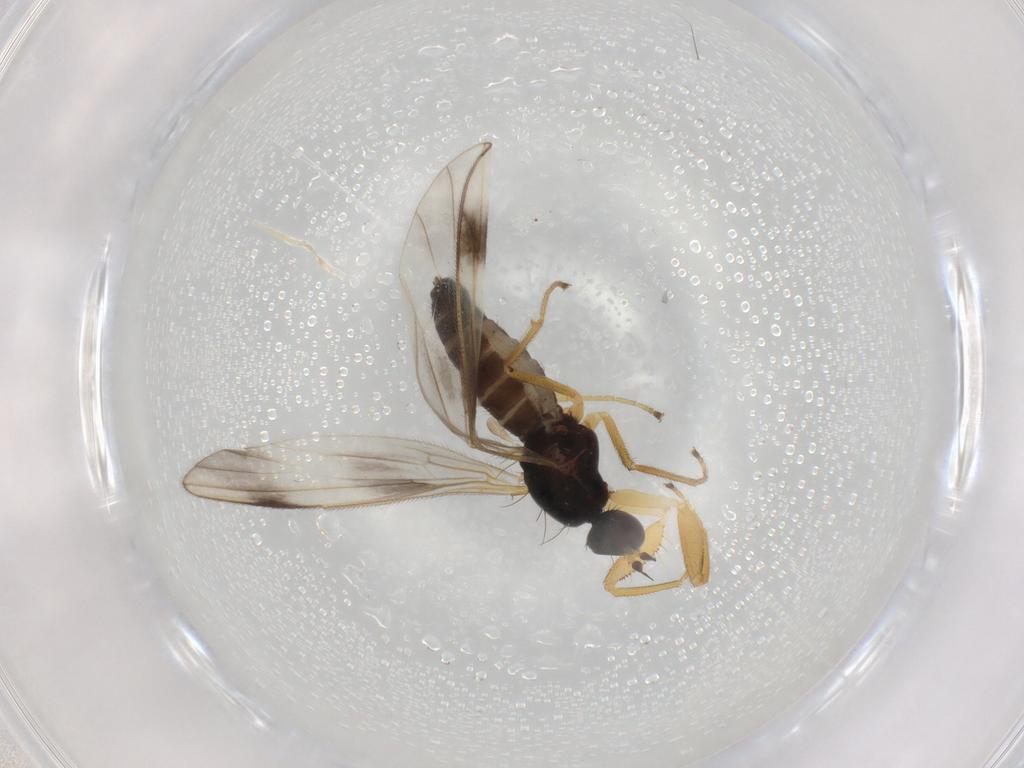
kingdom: Animalia
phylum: Arthropoda
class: Insecta
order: Diptera
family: Empididae
